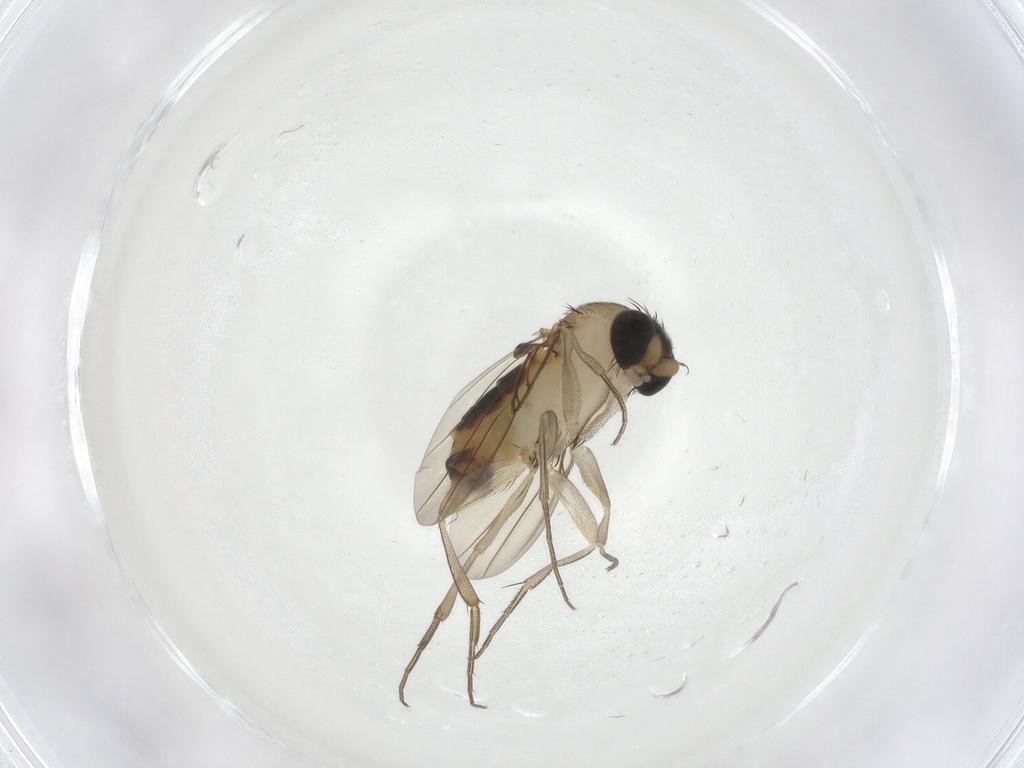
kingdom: Animalia
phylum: Arthropoda
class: Insecta
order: Diptera
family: Phoridae
